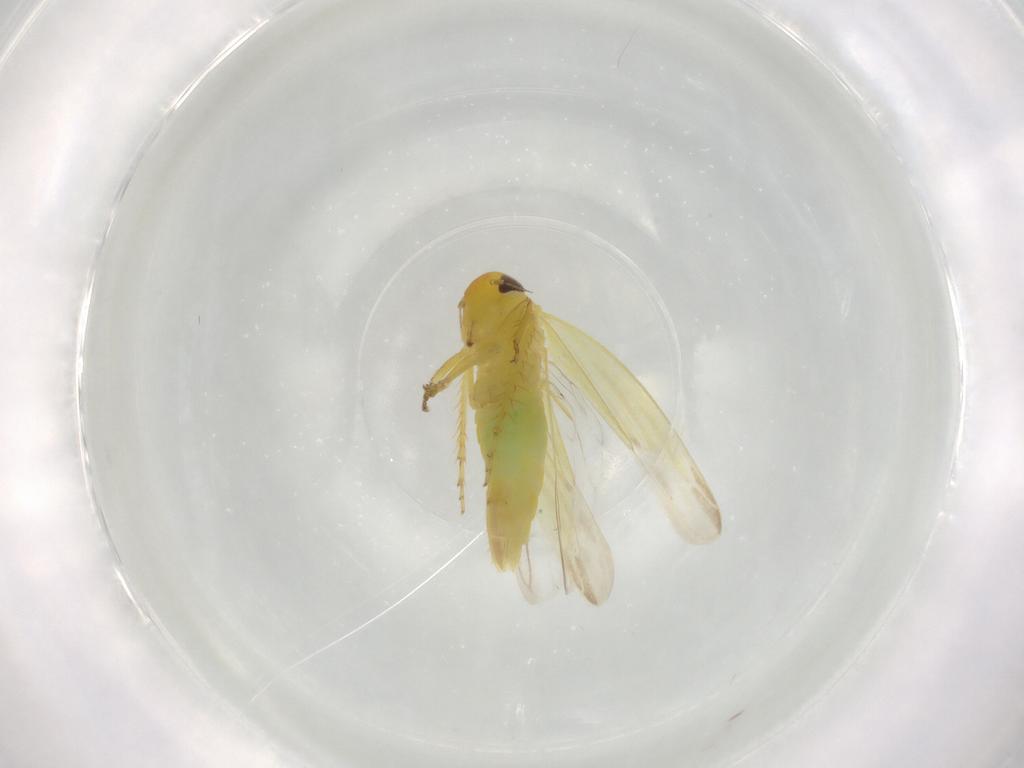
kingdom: Animalia
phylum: Arthropoda
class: Insecta
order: Hemiptera
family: Cicadellidae
